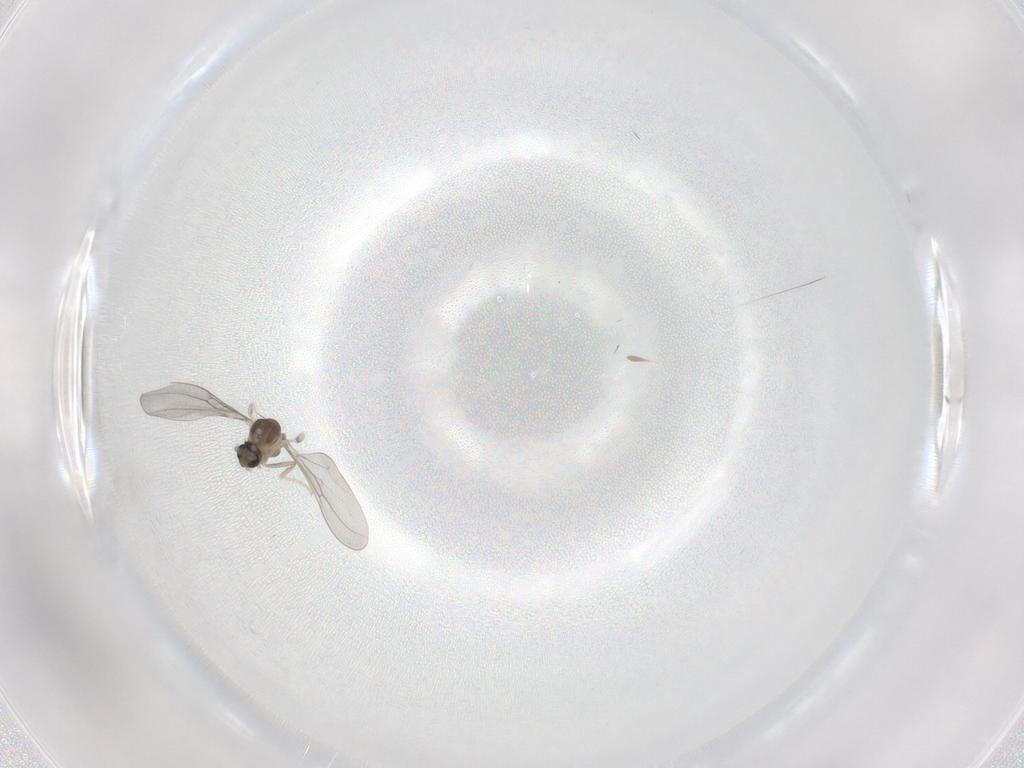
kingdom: Animalia
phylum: Arthropoda
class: Insecta
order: Diptera
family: Cecidomyiidae
